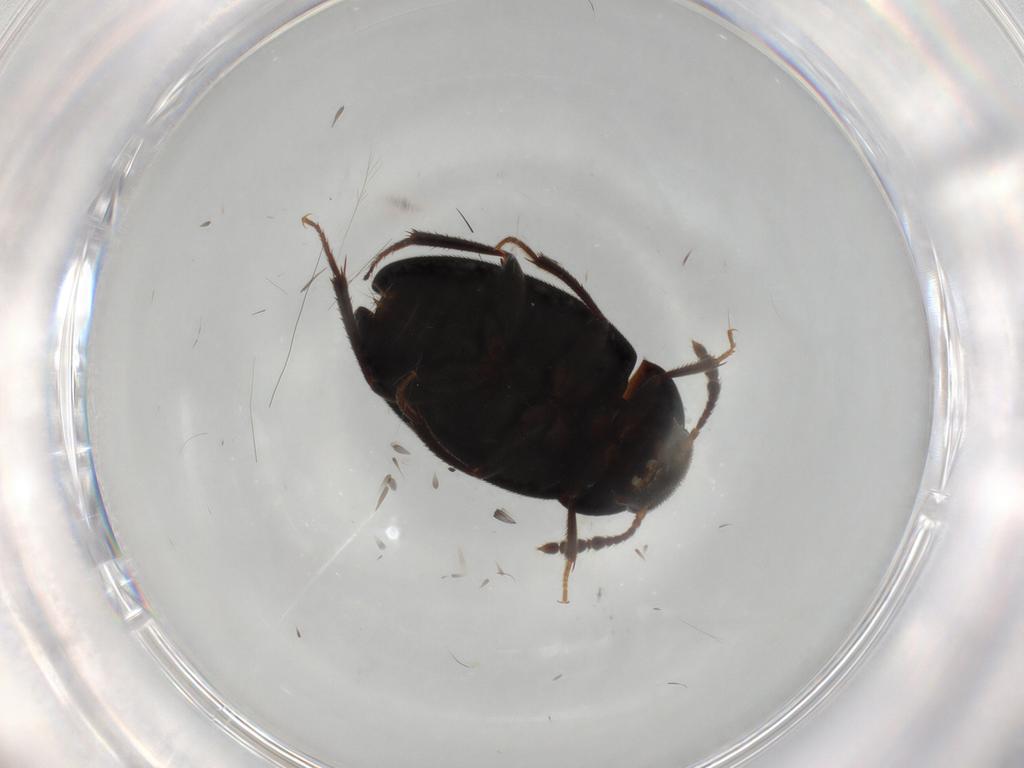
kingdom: Animalia
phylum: Arthropoda
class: Insecta
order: Coleoptera
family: Leiodidae
